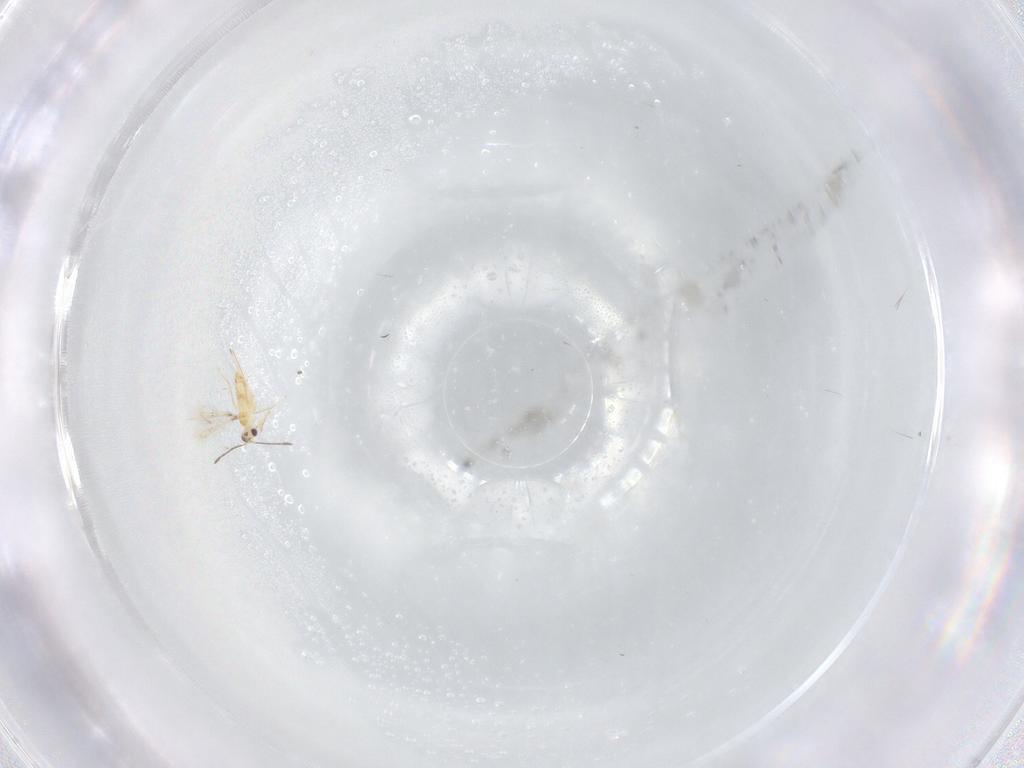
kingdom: Animalia
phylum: Arthropoda
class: Insecta
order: Hymenoptera
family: Mymaridae
